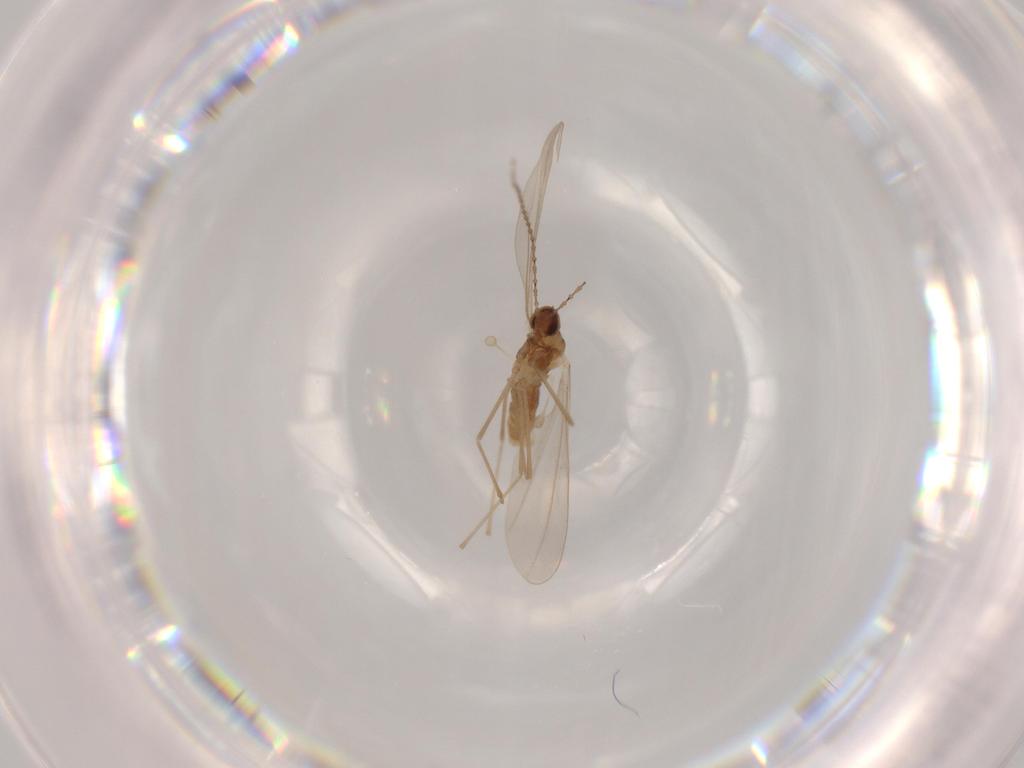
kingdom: Animalia
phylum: Arthropoda
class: Insecta
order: Diptera
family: Cecidomyiidae
